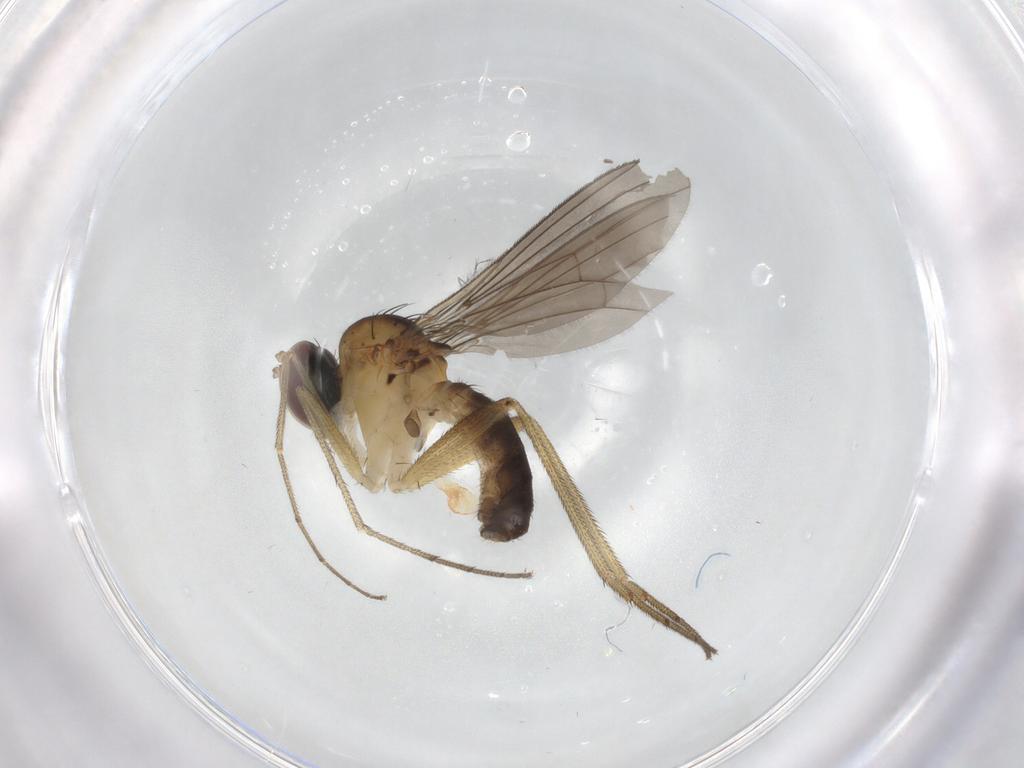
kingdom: Animalia
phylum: Arthropoda
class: Insecta
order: Diptera
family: Dolichopodidae
